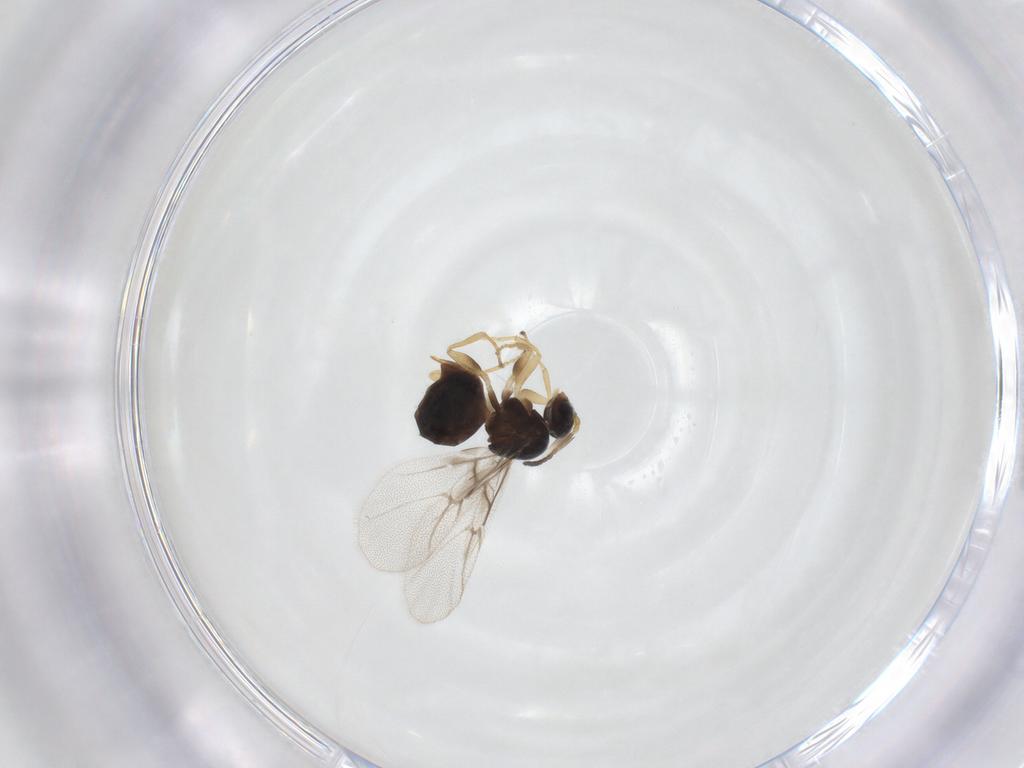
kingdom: Animalia
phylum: Arthropoda
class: Insecta
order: Hymenoptera
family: Cynipidae
